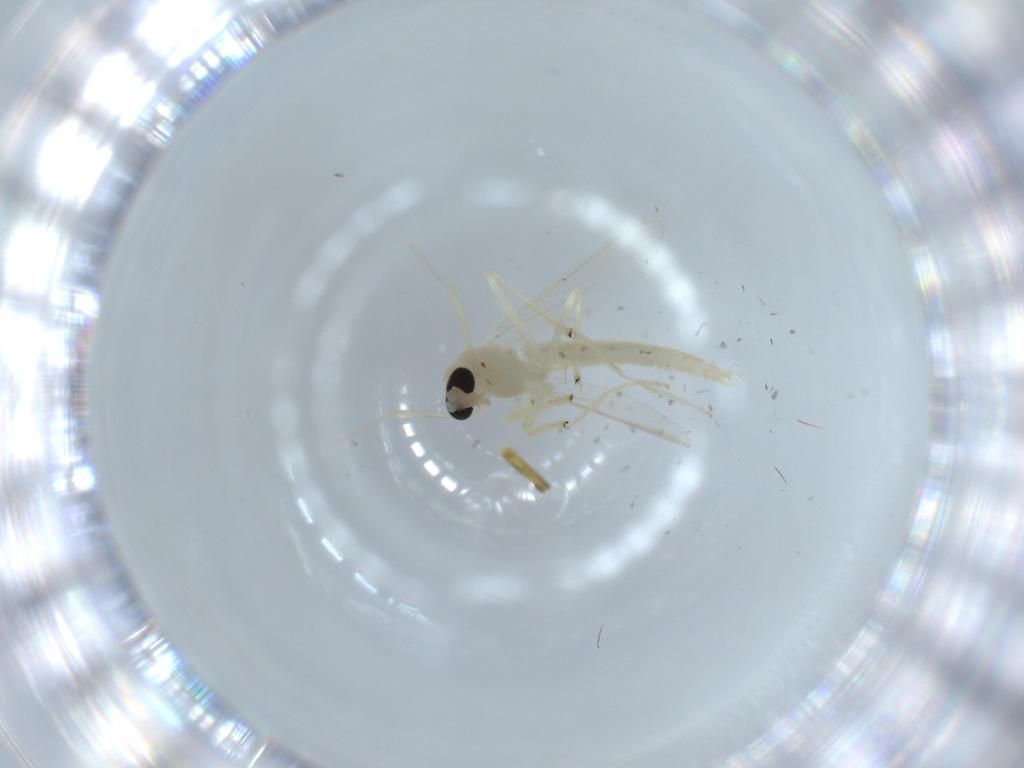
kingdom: Animalia
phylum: Arthropoda
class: Insecta
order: Diptera
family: Chironomidae
